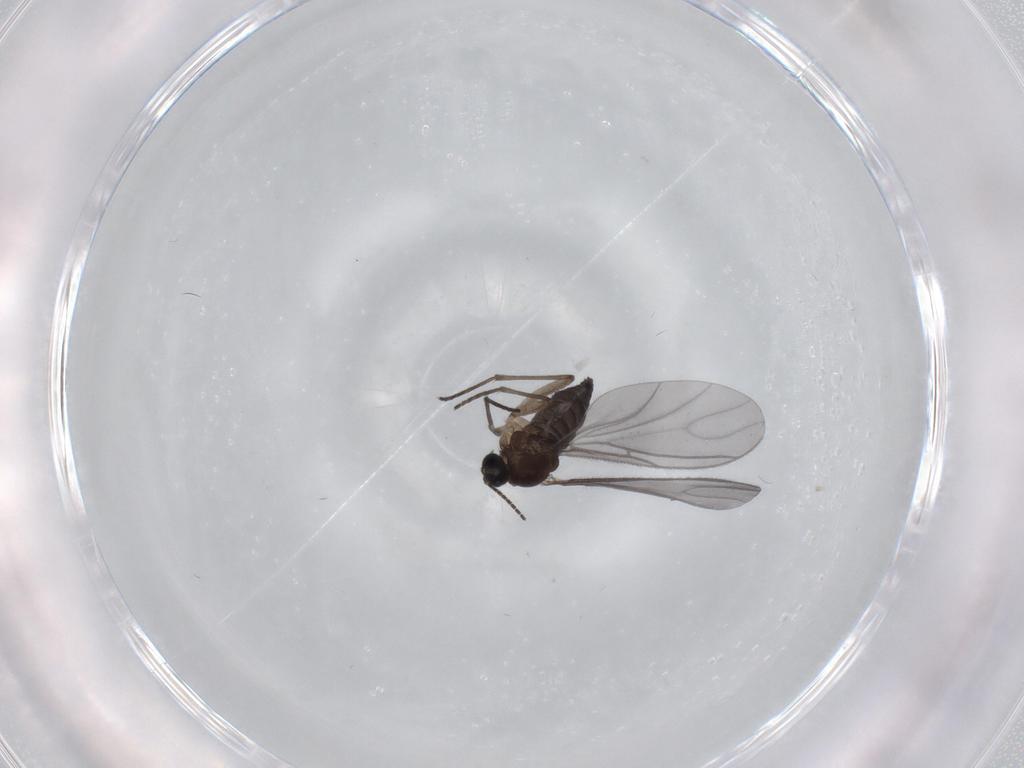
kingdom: Animalia
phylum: Arthropoda
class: Insecta
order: Diptera
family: Sciaridae
